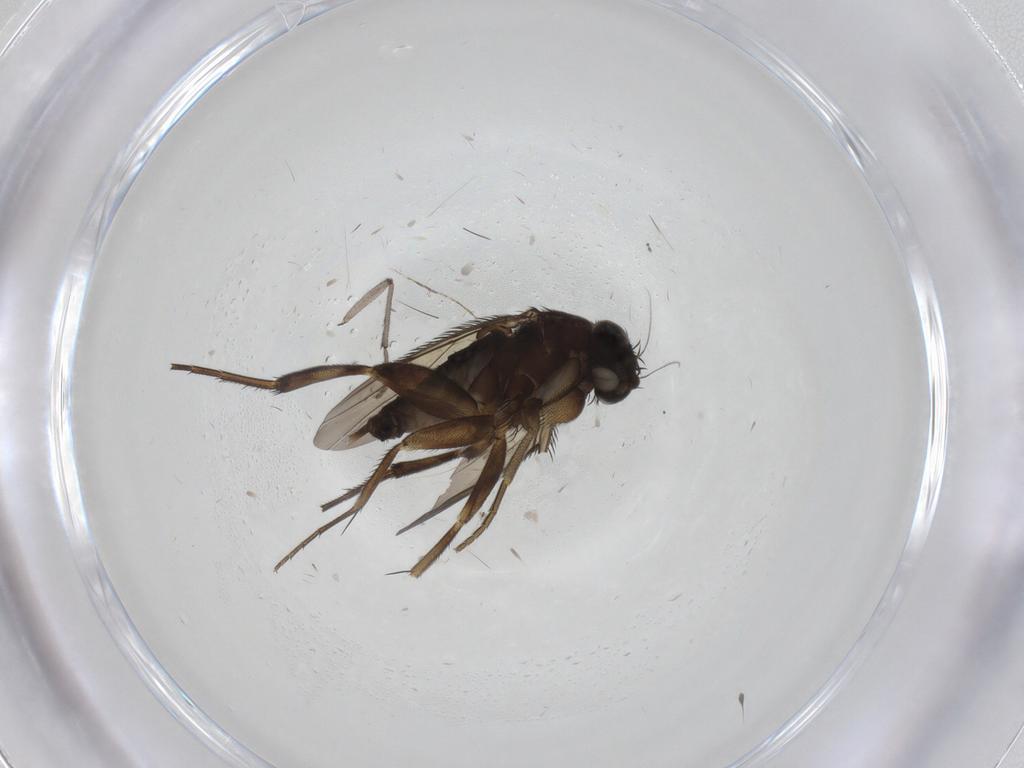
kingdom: Animalia
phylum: Arthropoda
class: Insecta
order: Diptera
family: Phoridae
